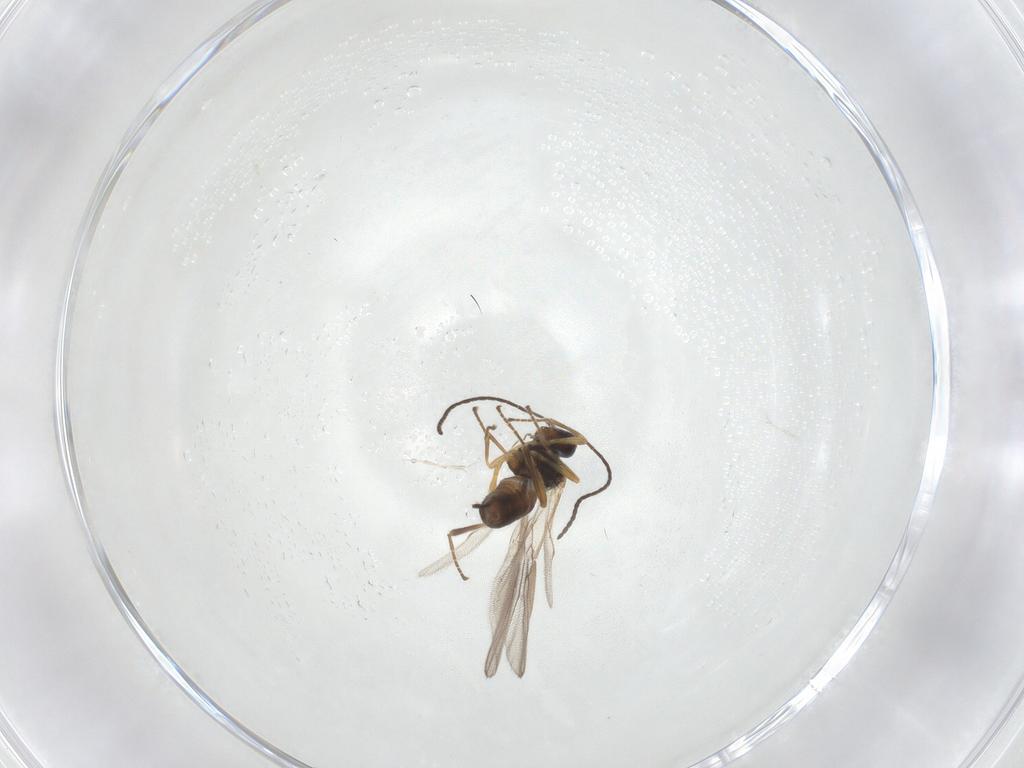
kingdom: Animalia
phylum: Arthropoda
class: Insecta
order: Hymenoptera
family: Braconidae
